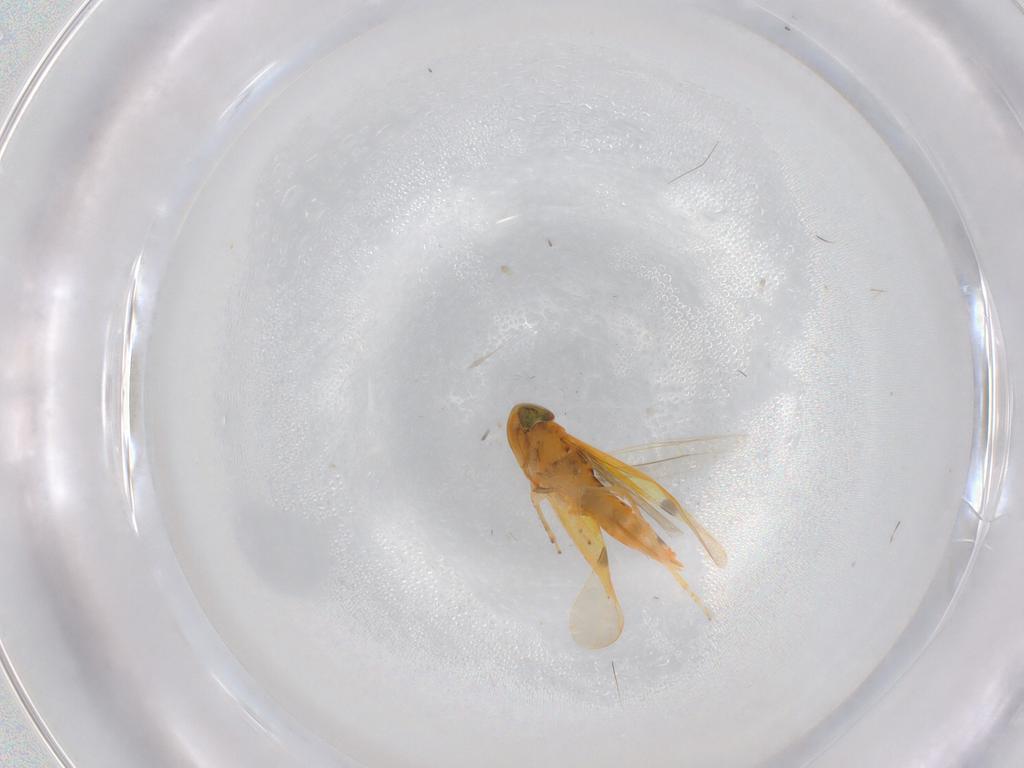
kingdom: Animalia
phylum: Arthropoda
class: Insecta
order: Hemiptera
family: Cicadellidae
